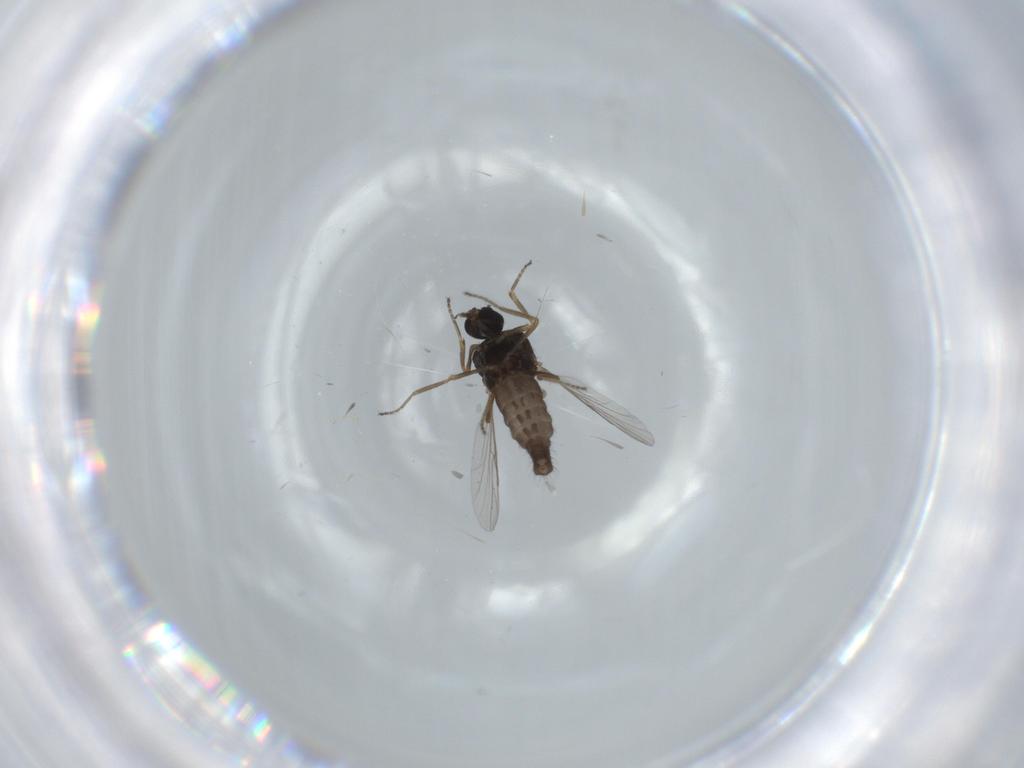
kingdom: Animalia
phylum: Arthropoda
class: Insecta
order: Diptera
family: Ceratopogonidae
